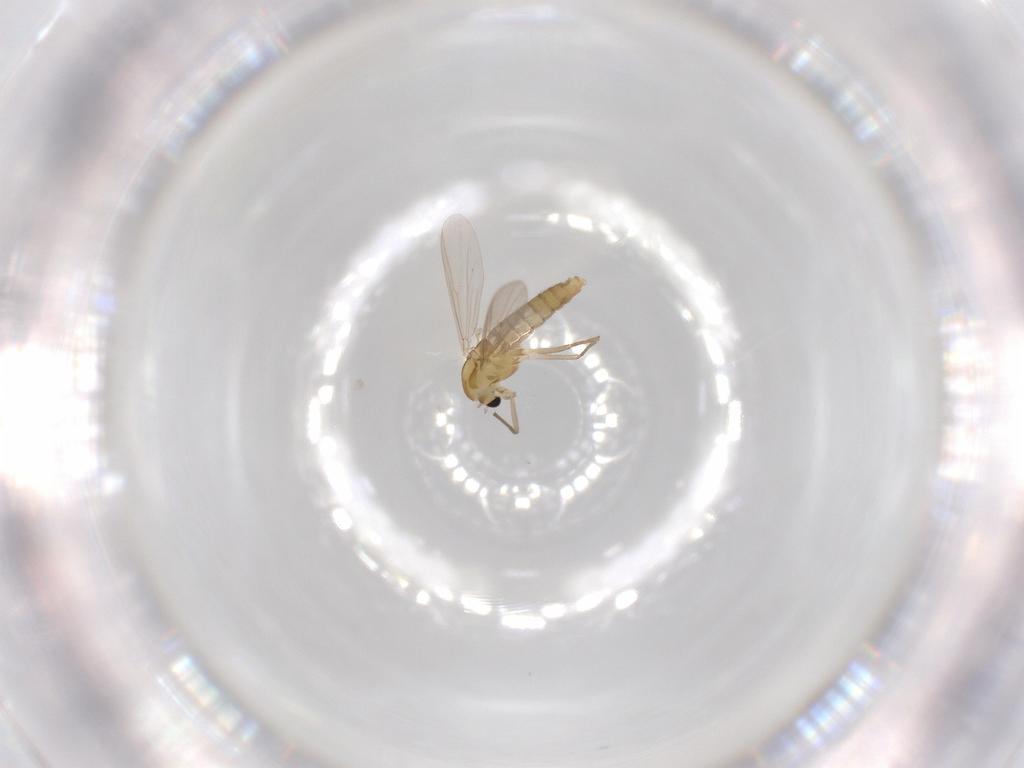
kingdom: Animalia
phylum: Arthropoda
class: Insecta
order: Diptera
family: Chironomidae
